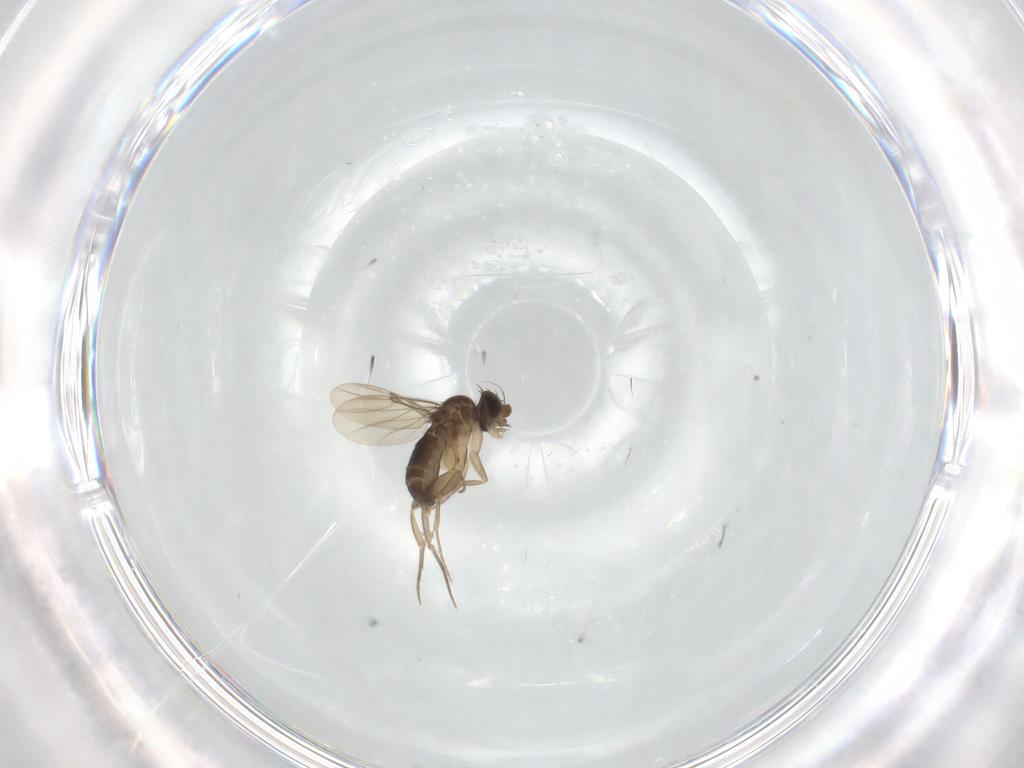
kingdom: Animalia
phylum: Arthropoda
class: Insecta
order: Diptera
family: Phoridae
